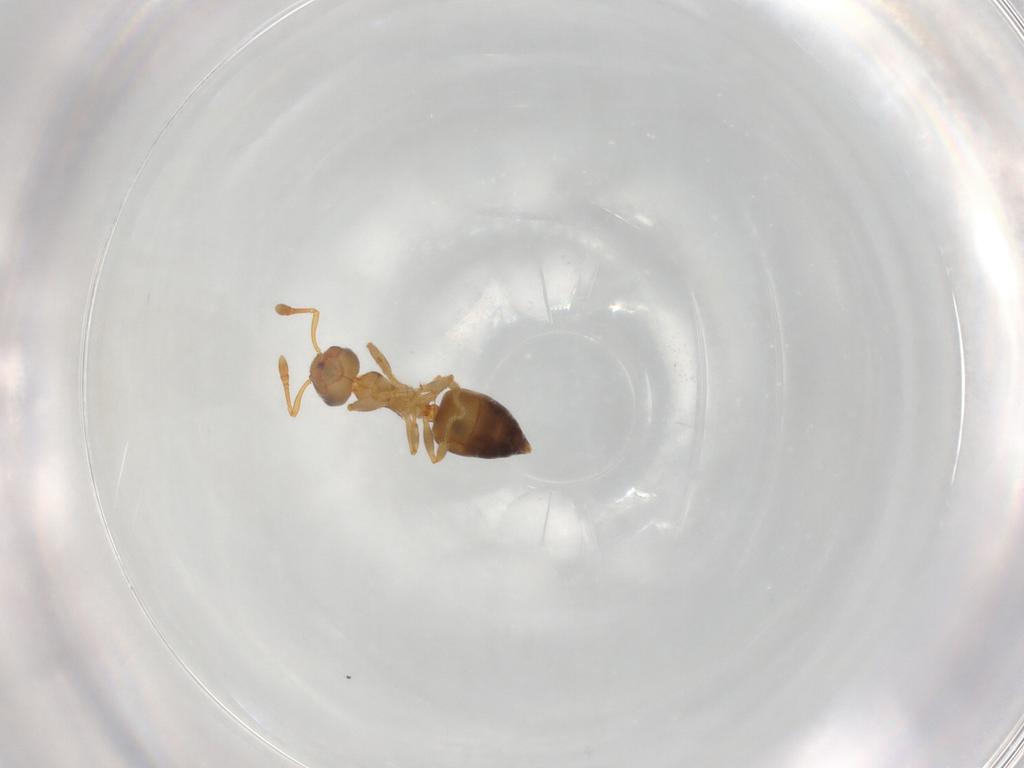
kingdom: Animalia
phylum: Arthropoda
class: Insecta
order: Hymenoptera
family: Formicidae
